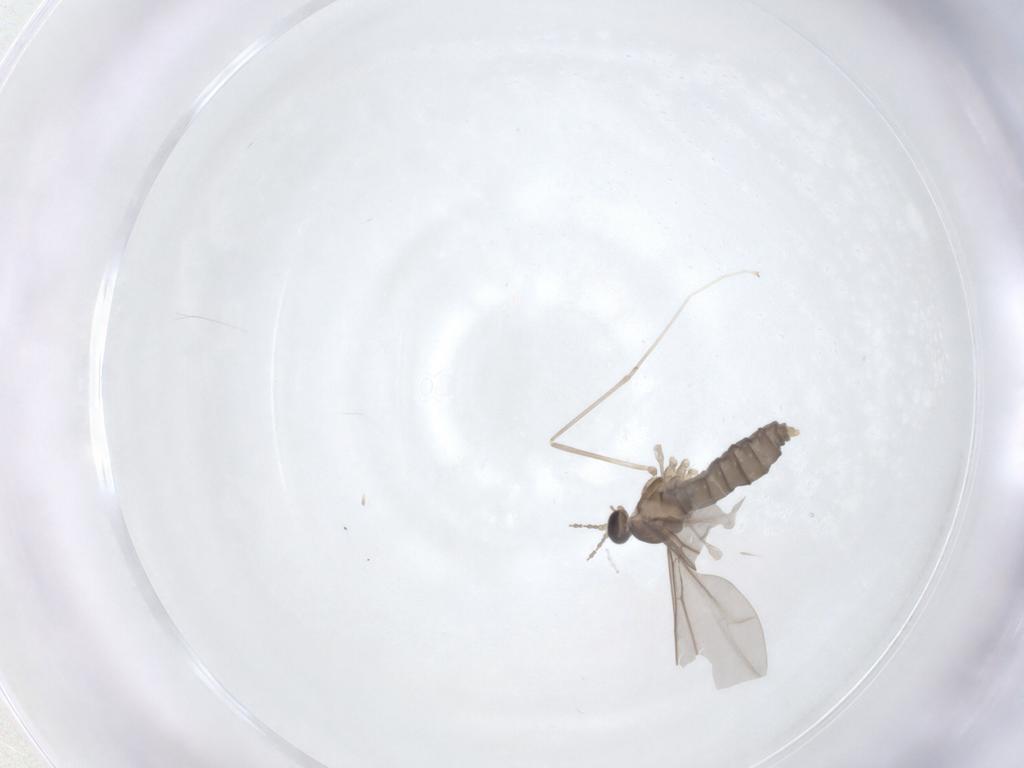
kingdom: Animalia
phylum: Arthropoda
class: Insecta
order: Diptera
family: Cecidomyiidae
